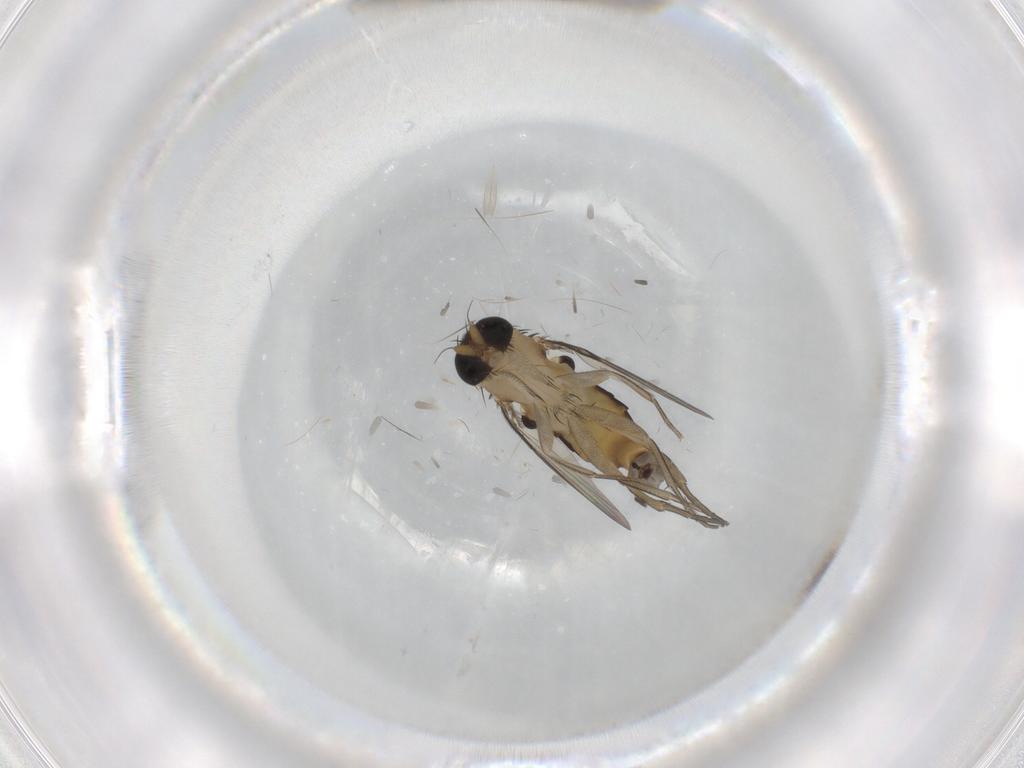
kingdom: Animalia
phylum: Arthropoda
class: Insecta
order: Diptera
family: Phoridae
